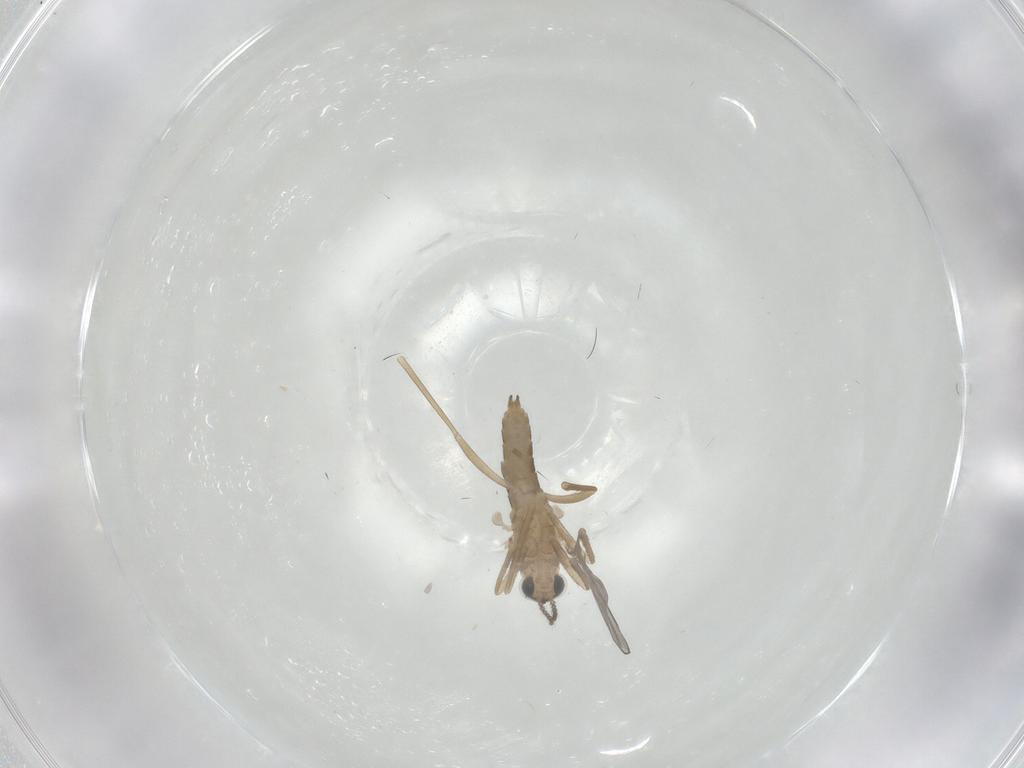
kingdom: Animalia
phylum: Arthropoda
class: Insecta
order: Diptera
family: Cecidomyiidae
